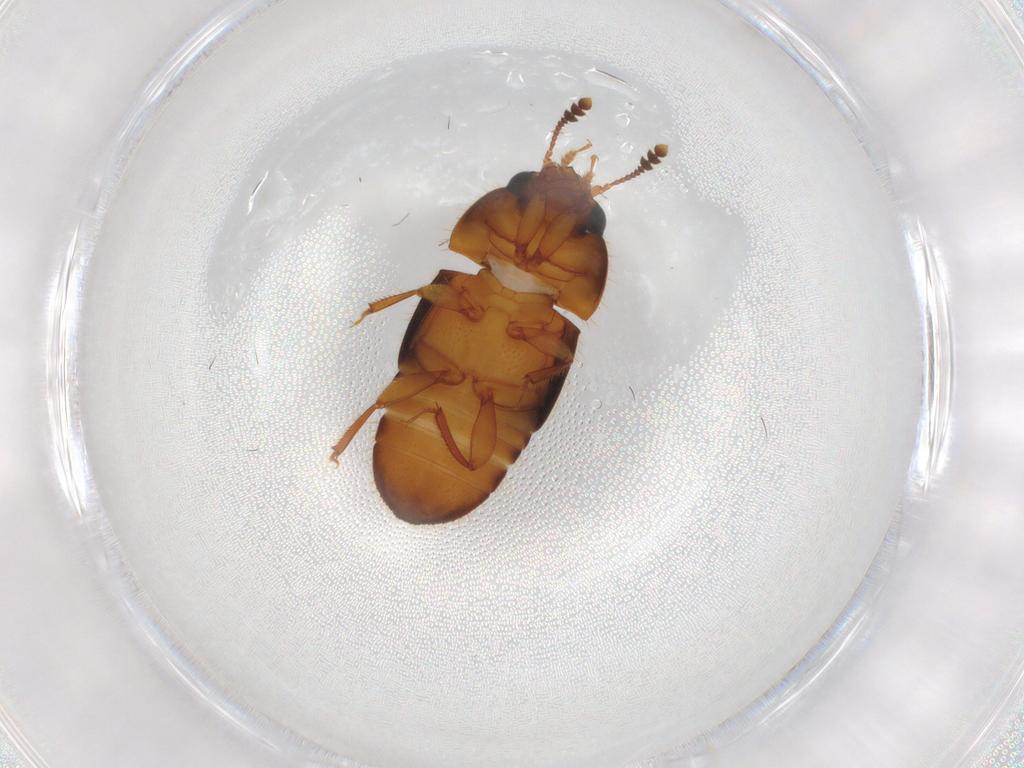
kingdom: Animalia
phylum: Arthropoda
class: Insecta
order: Coleoptera
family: Nitidulidae
